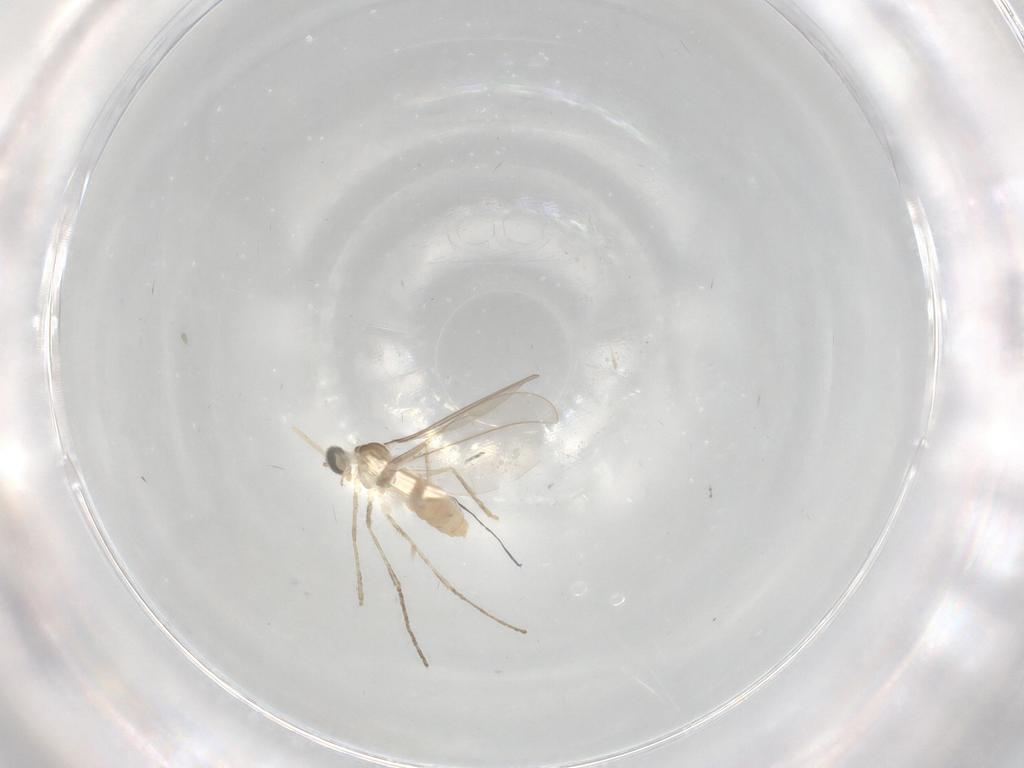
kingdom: Animalia
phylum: Arthropoda
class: Insecta
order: Diptera
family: Cecidomyiidae
